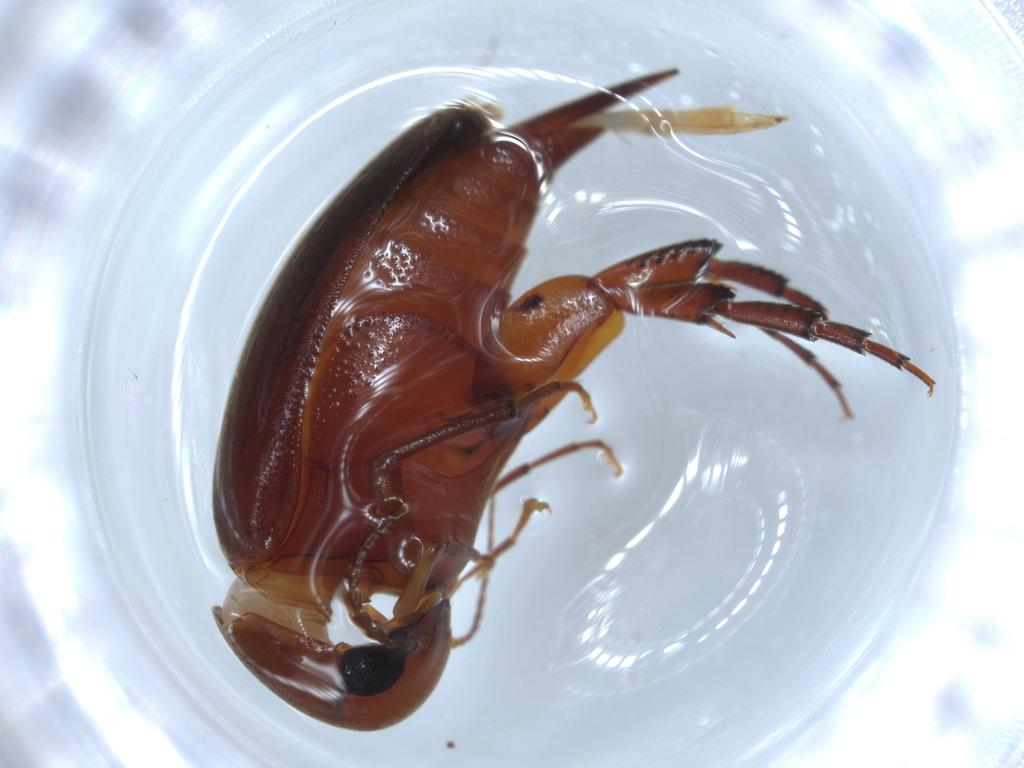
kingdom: Animalia
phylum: Arthropoda
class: Insecta
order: Coleoptera
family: Mordellidae
